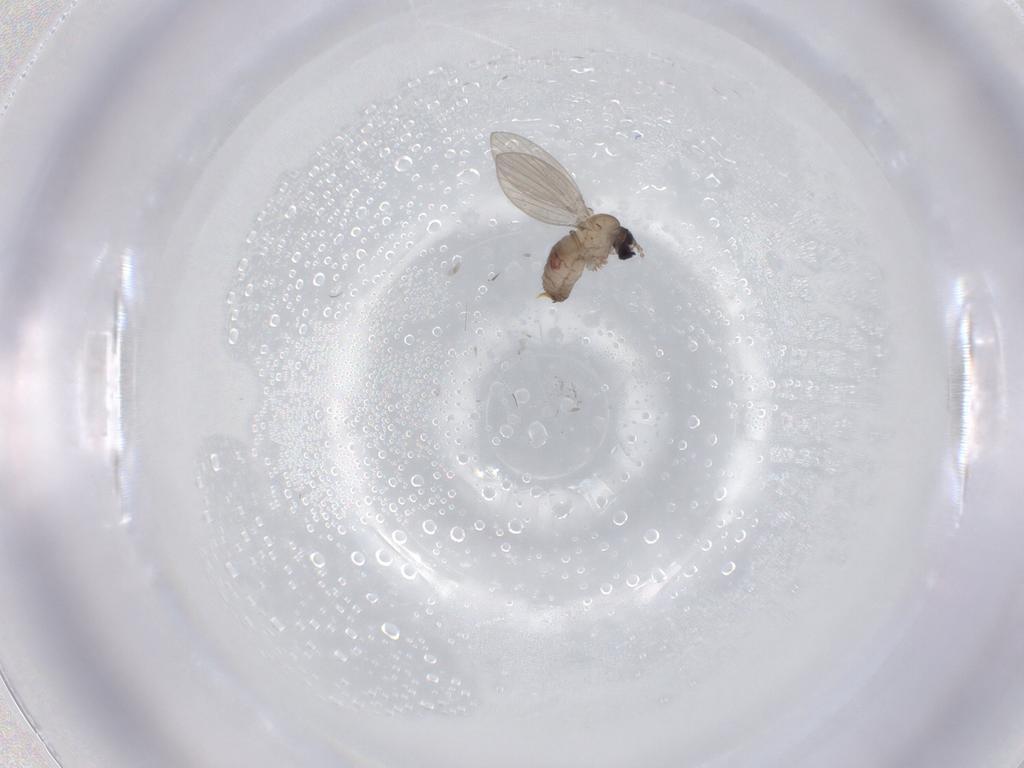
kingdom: Animalia
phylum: Arthropoda
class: Insecta
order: Diptera
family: Psychodidae
